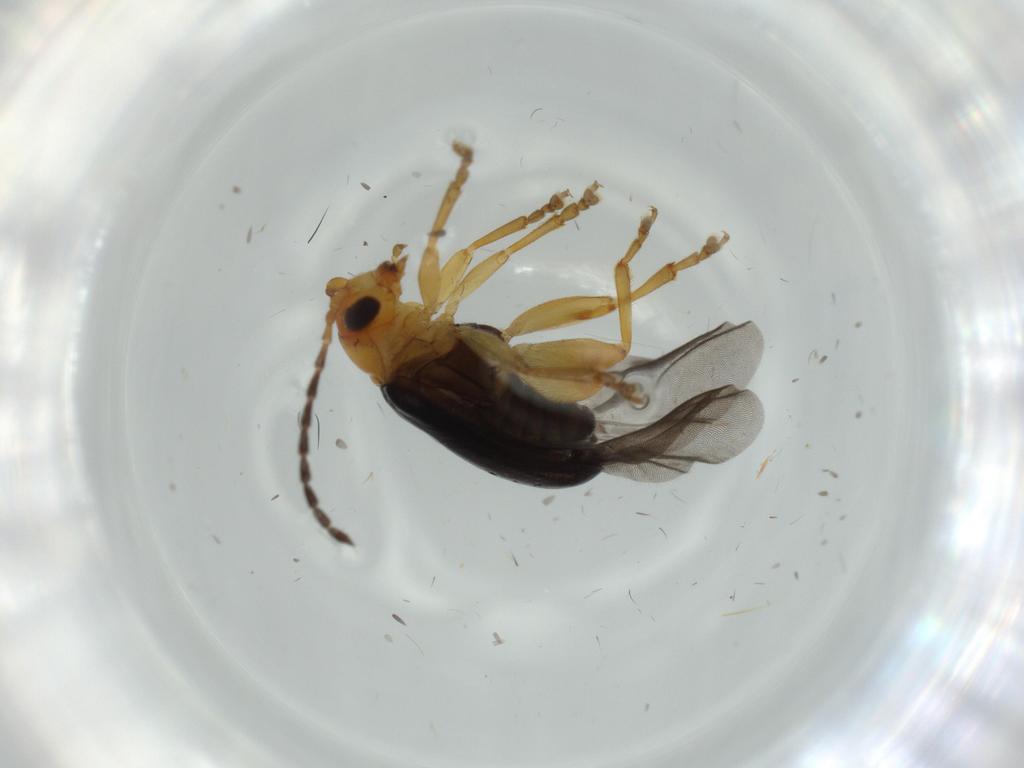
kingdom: Animalia
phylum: Arthropoda
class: Insecta
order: Coleoptera
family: Chrysomelidae
